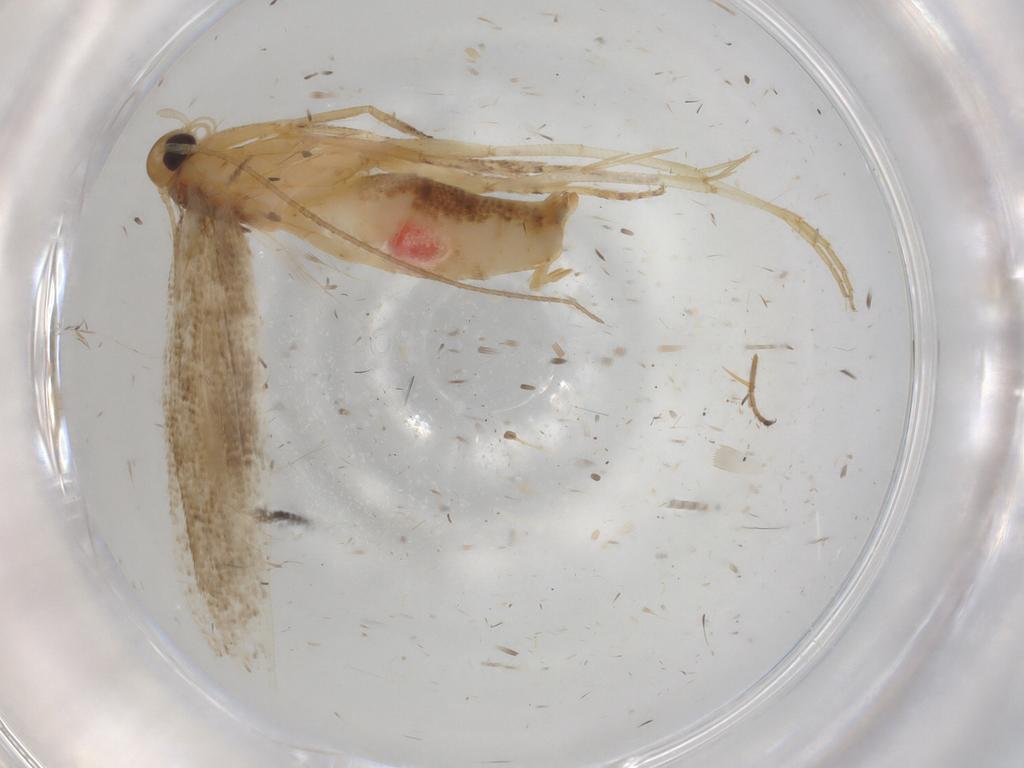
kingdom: Animalia
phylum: Arthropoda
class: Insecta
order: Lepidoptera
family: Cosmopterigidae
